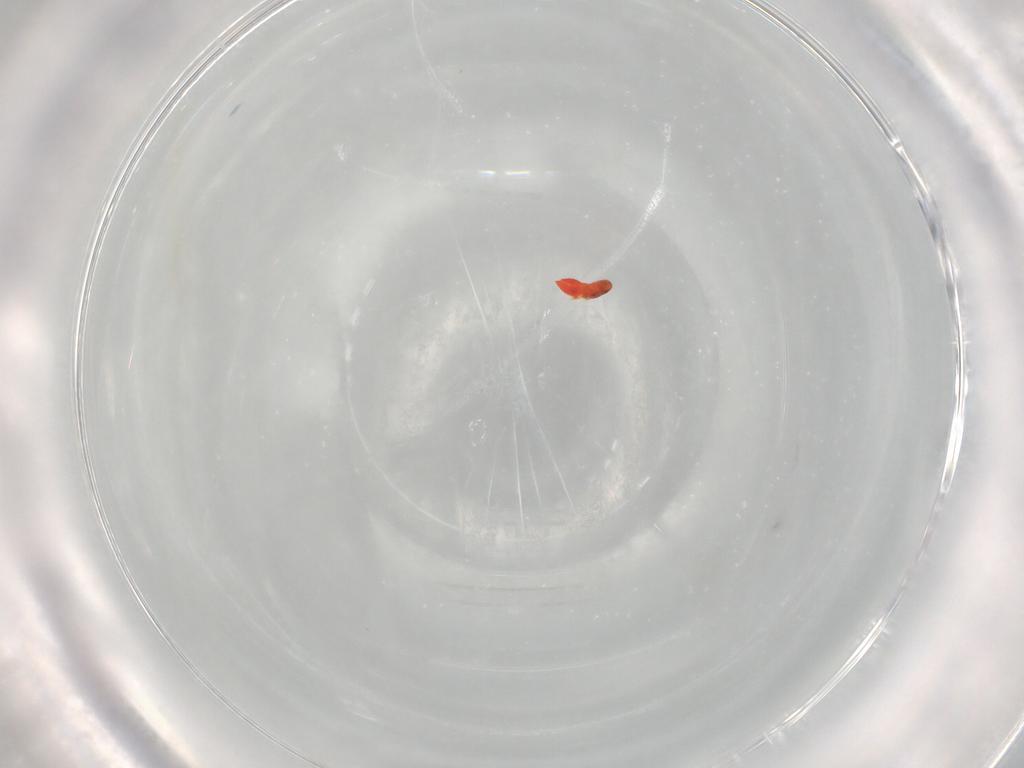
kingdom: Animalia
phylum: Arthropoda
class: Insecta
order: Hymenoptera
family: Trichogrammatidae
